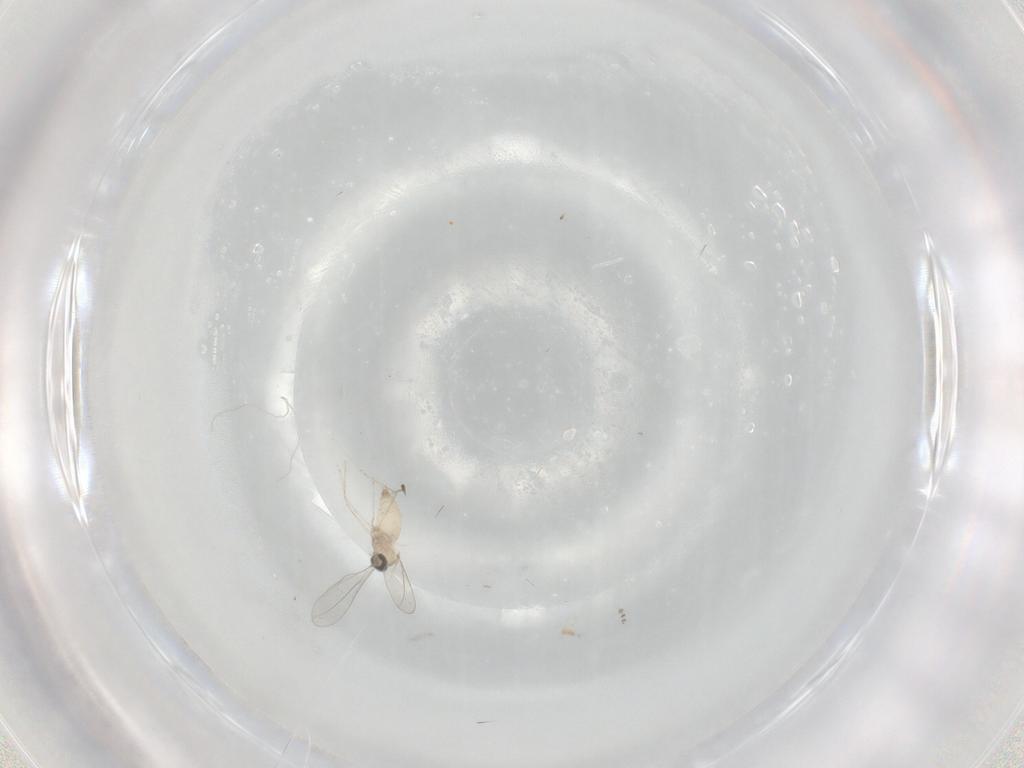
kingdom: Animalia
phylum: Arthropoda
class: Insecta
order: Diptera
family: Cecidomyiidae
